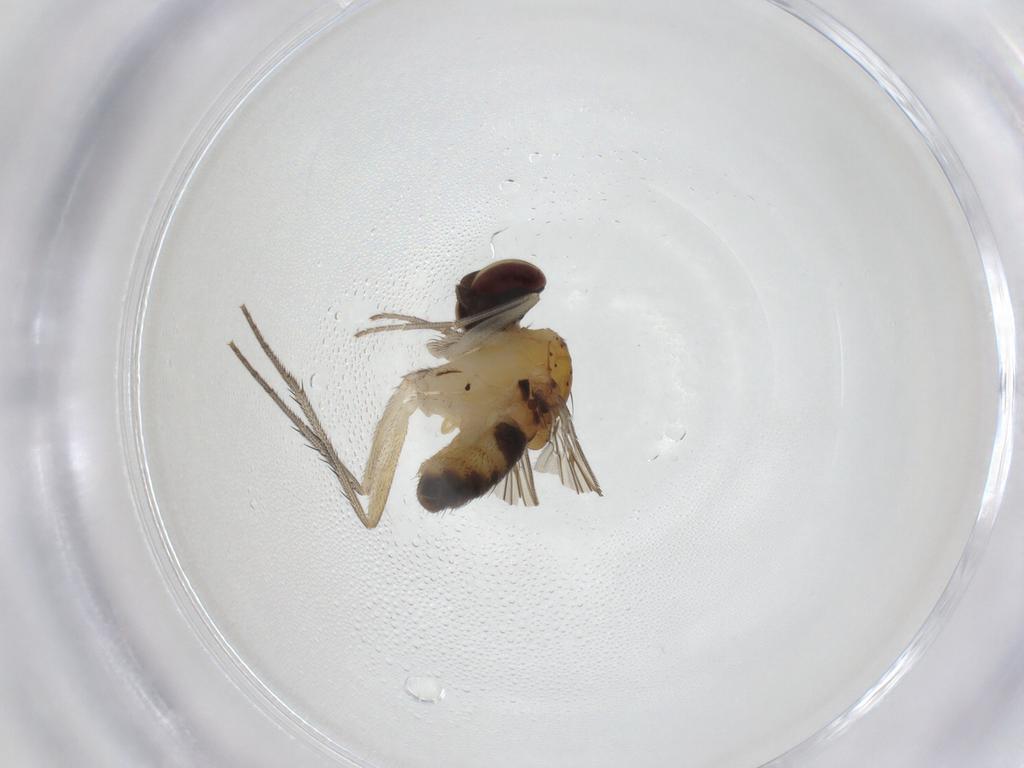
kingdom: Animalia
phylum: Arthropoda
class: Insecta
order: Diptera
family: Dolichopodidae
